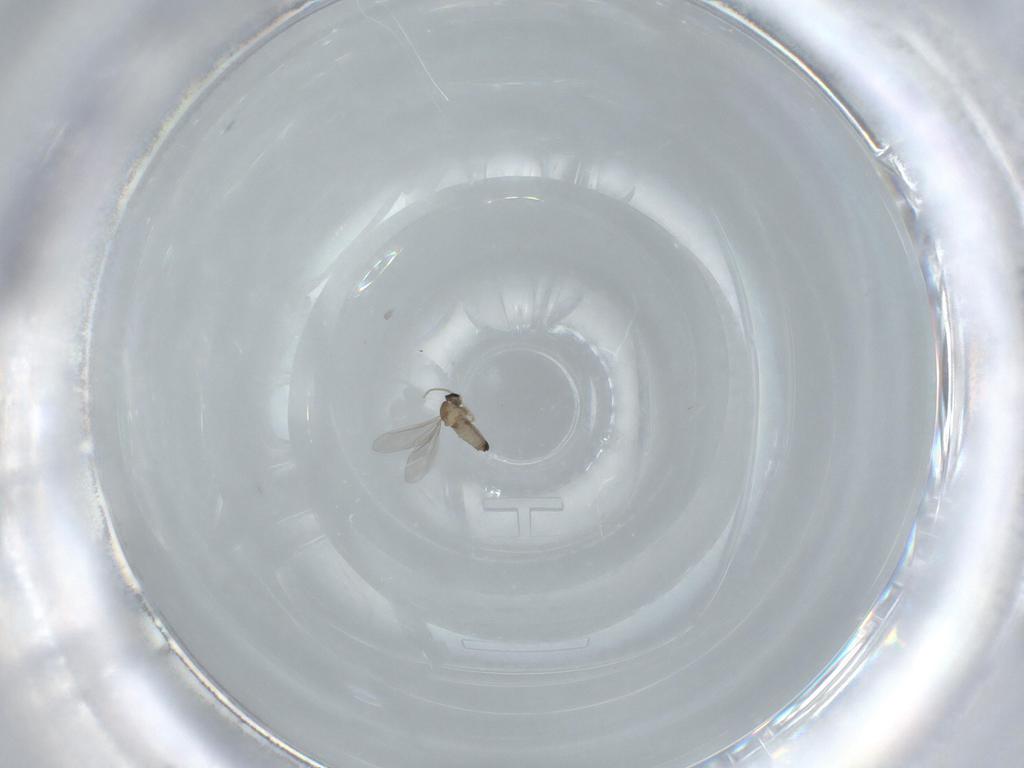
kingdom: Animalia
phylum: Arthropoda
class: Insecta
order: Diptera
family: Cecidomyiidae
